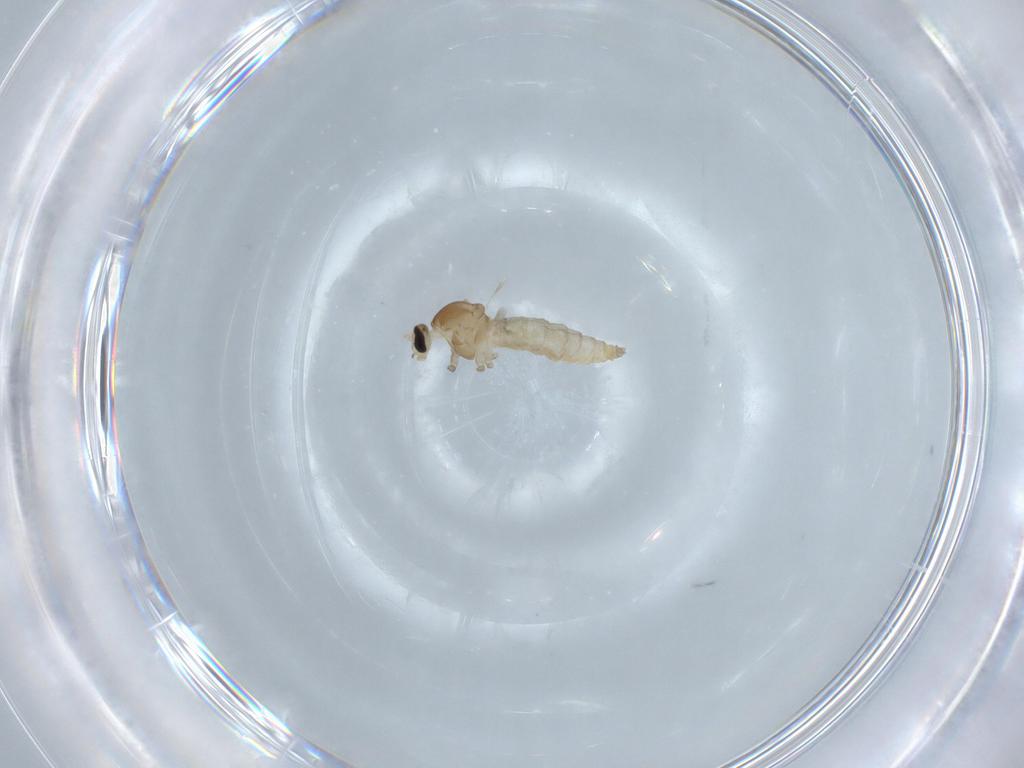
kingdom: Animalia
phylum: Arthropoda
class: Insecta
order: Diptera
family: Cecidomyiidae
